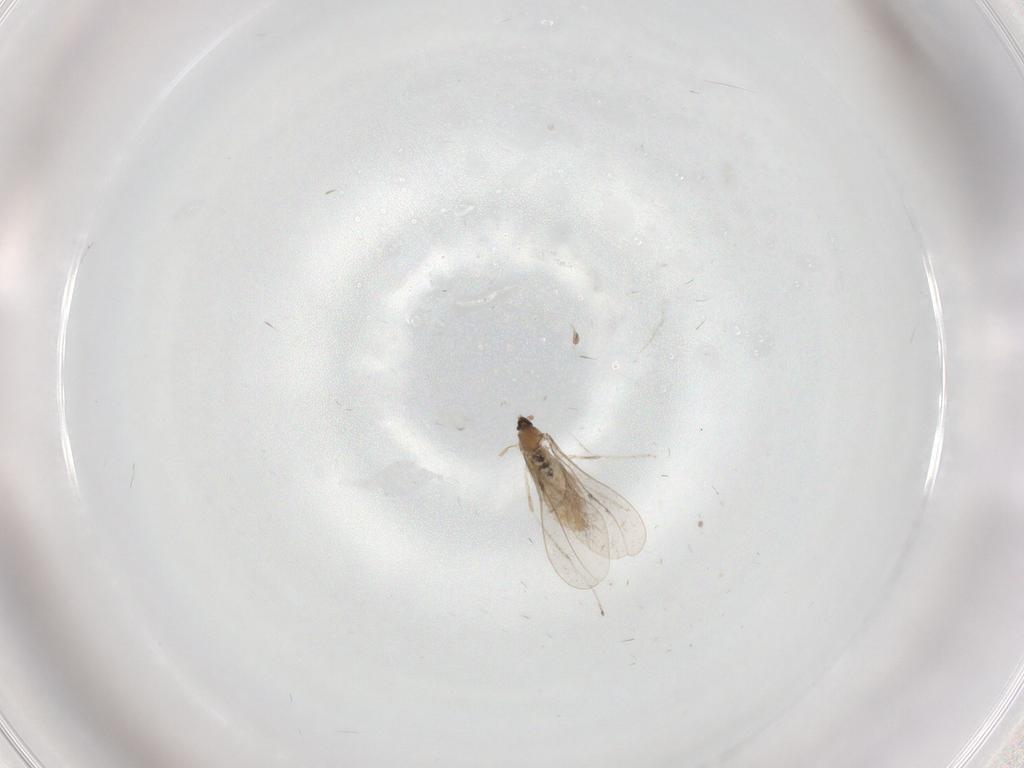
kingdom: Animalia
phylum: Arthropoda
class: Insecta
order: Diptera
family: Cecidomyiidae
